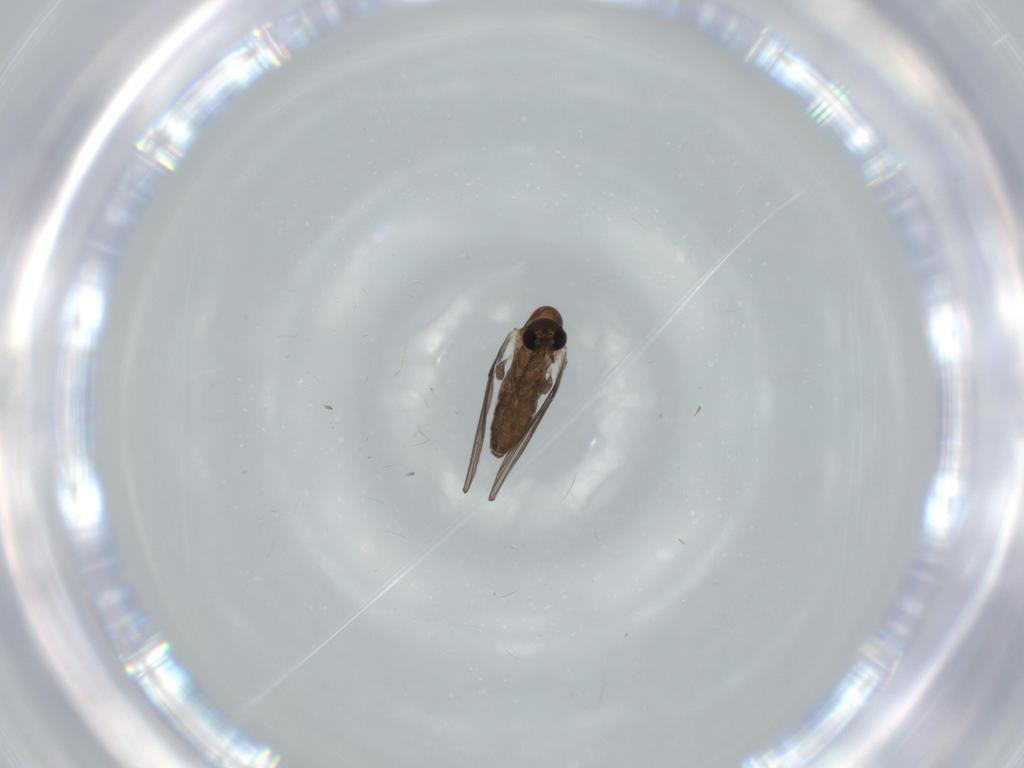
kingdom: Animalia
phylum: Arthropoda
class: Insecta
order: Diptera
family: Psychodidae
